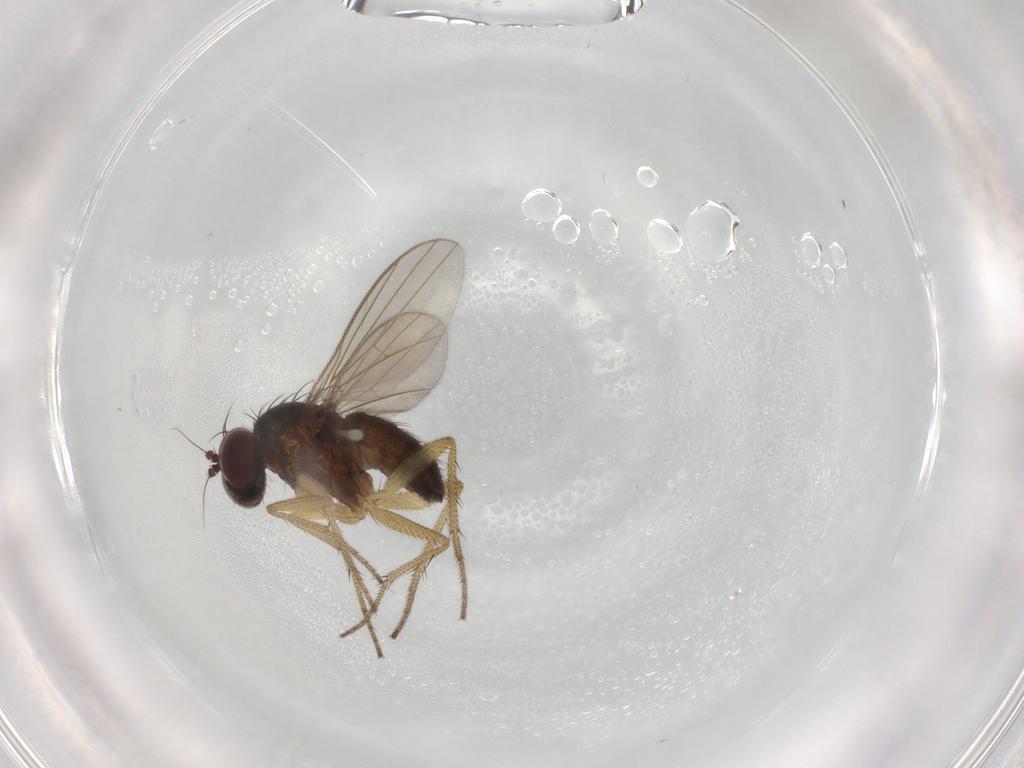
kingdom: Animalia
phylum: Arthropoda
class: Insecta
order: Diptera
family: Dolichopodidae
